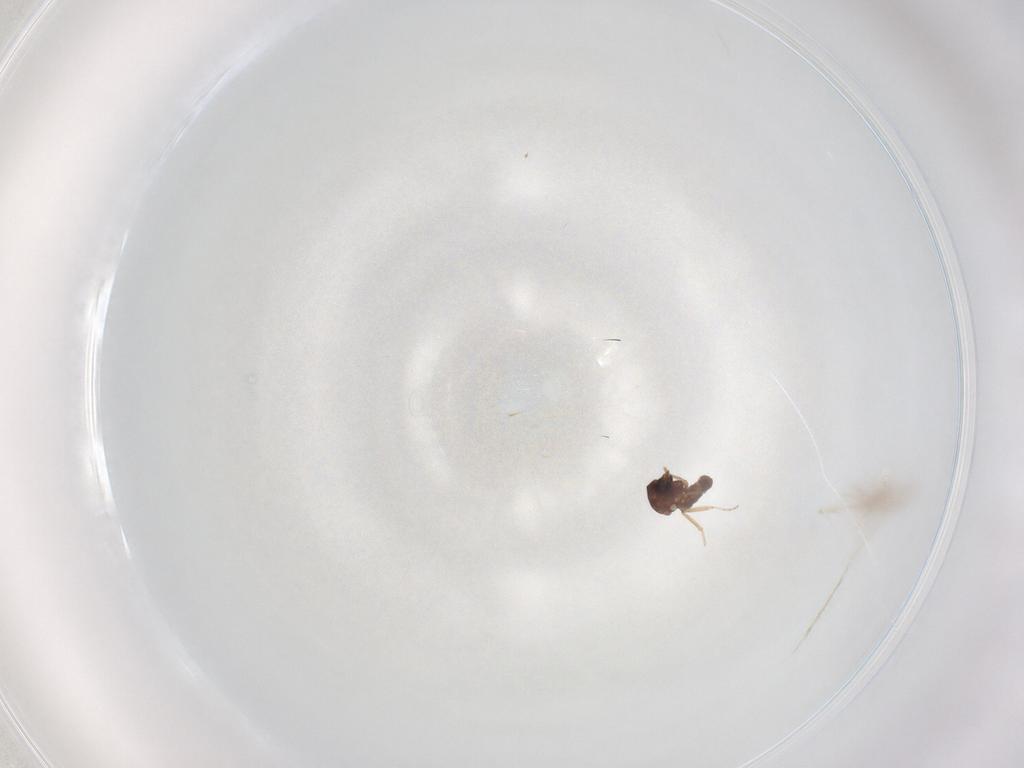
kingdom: Animalia
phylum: Arthropoda
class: Insecta
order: Diptera
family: Ceratopogonidae
